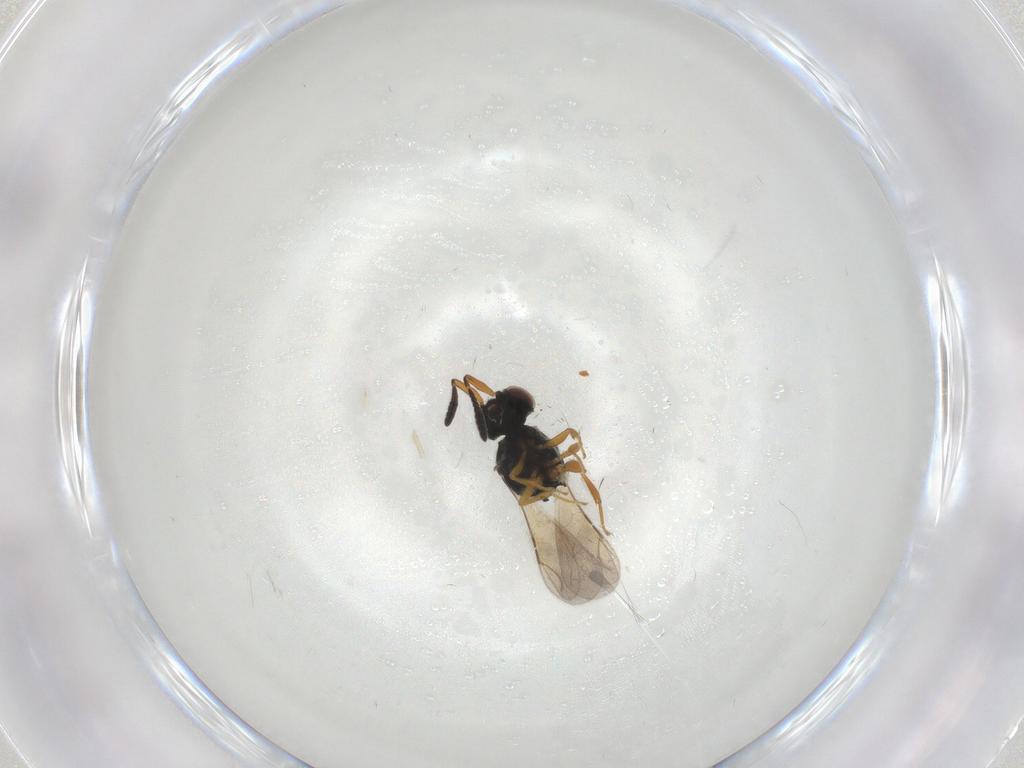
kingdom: Animalia
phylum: Arthropoda
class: Insecta
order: Hymenoptera
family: Ceraphronidae
